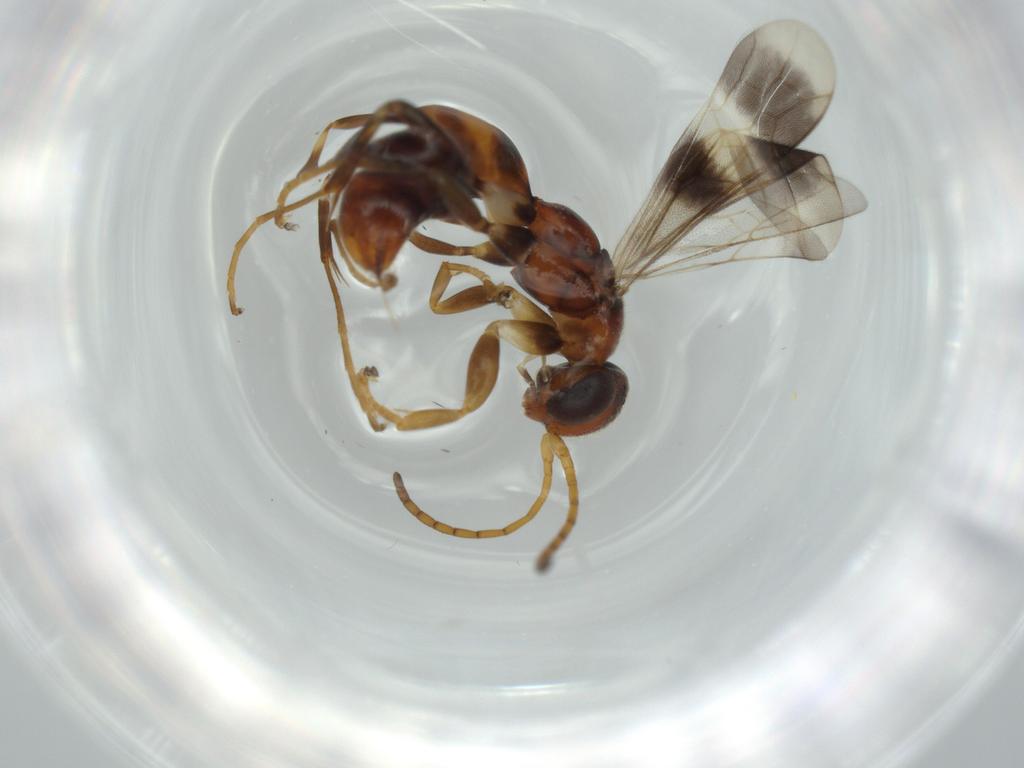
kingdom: Animalia
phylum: Arthropoda
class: Insecta
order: Hymenoptera
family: Pompilidae
